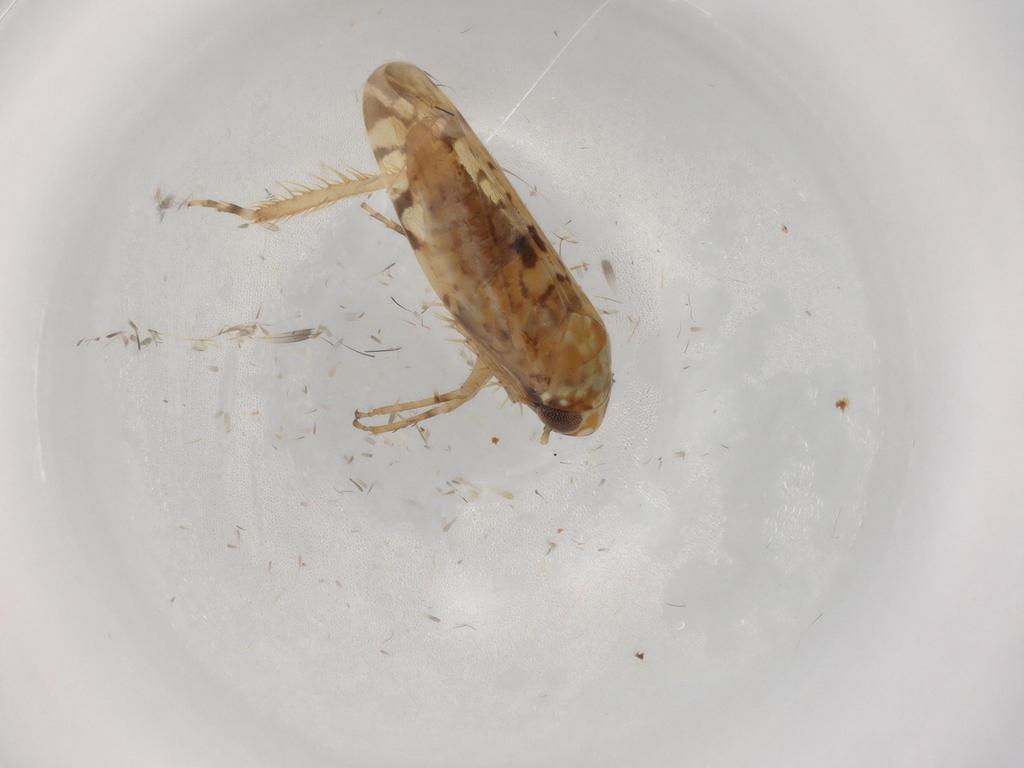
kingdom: Animalia
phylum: Arthropoda
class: Insecta
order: Hemiptera
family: Cicadellidae
